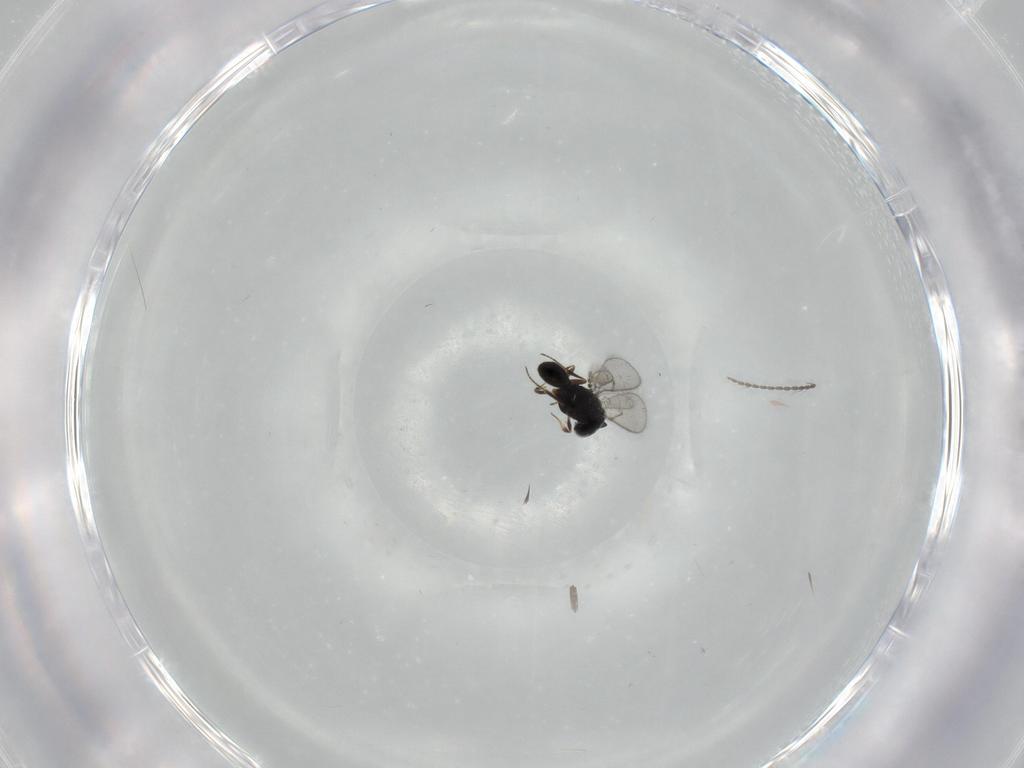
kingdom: Animalia
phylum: Arthropoda
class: Insecta
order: Hymenoptera
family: Scelionidae
